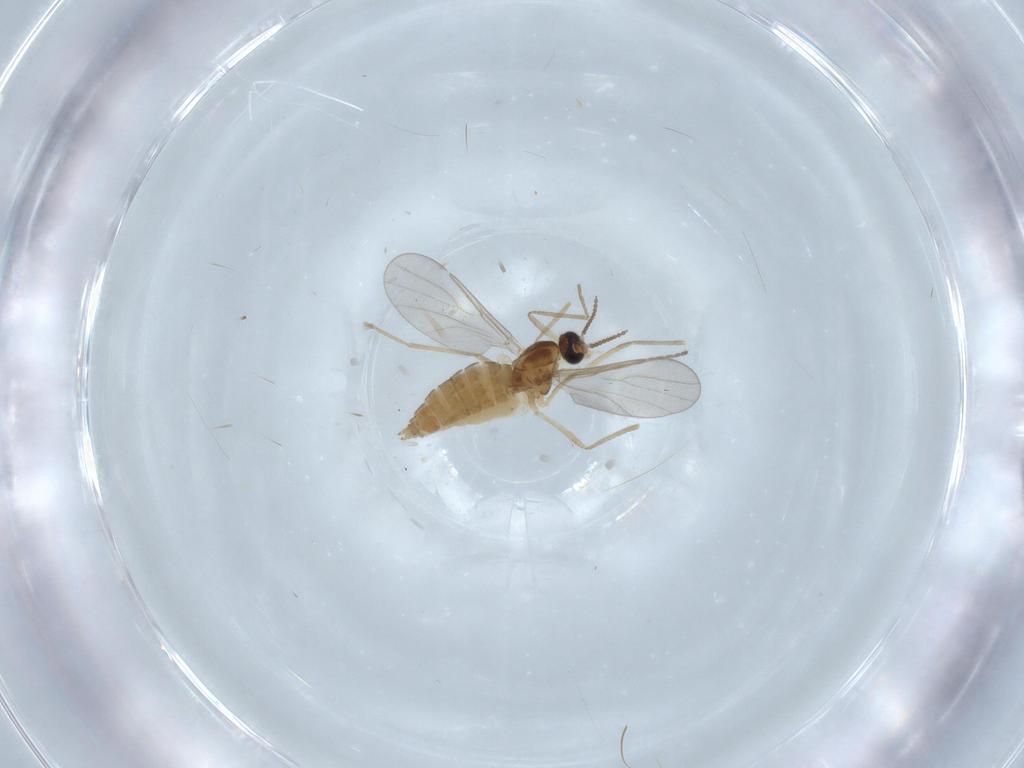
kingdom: Animalia
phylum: Arthropoda
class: Insecta
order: Diptera
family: Cecidomyiidae
